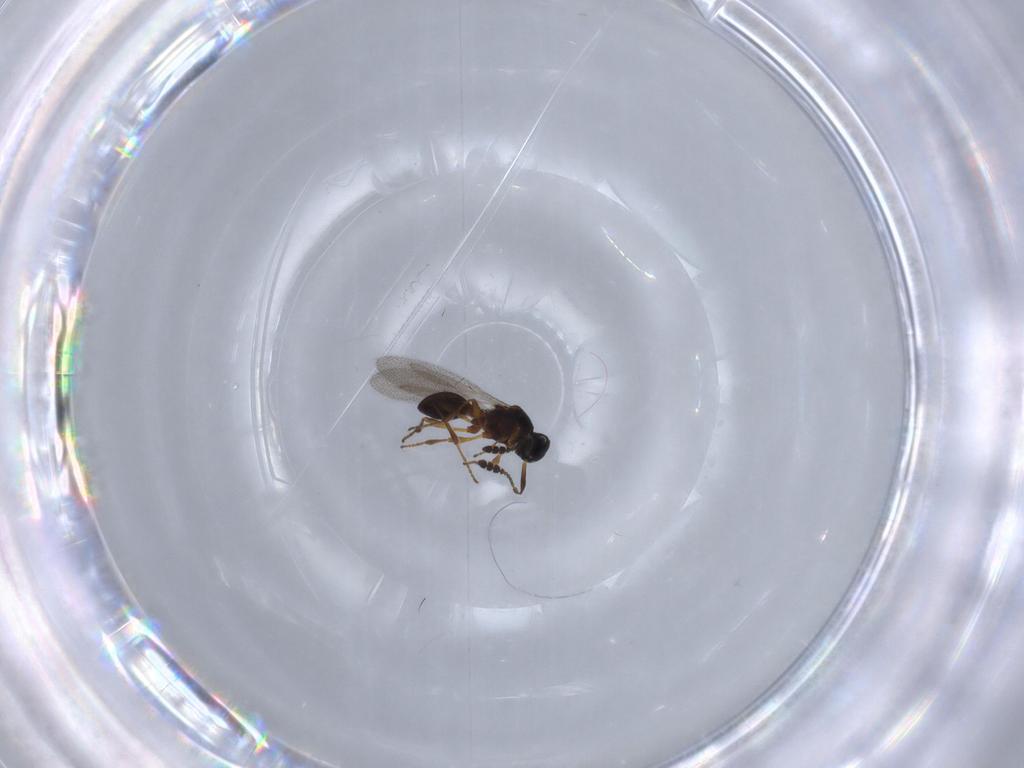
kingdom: Animalia
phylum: Arthropoda
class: Insecta
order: Hymenoptera
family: Platygastridae
